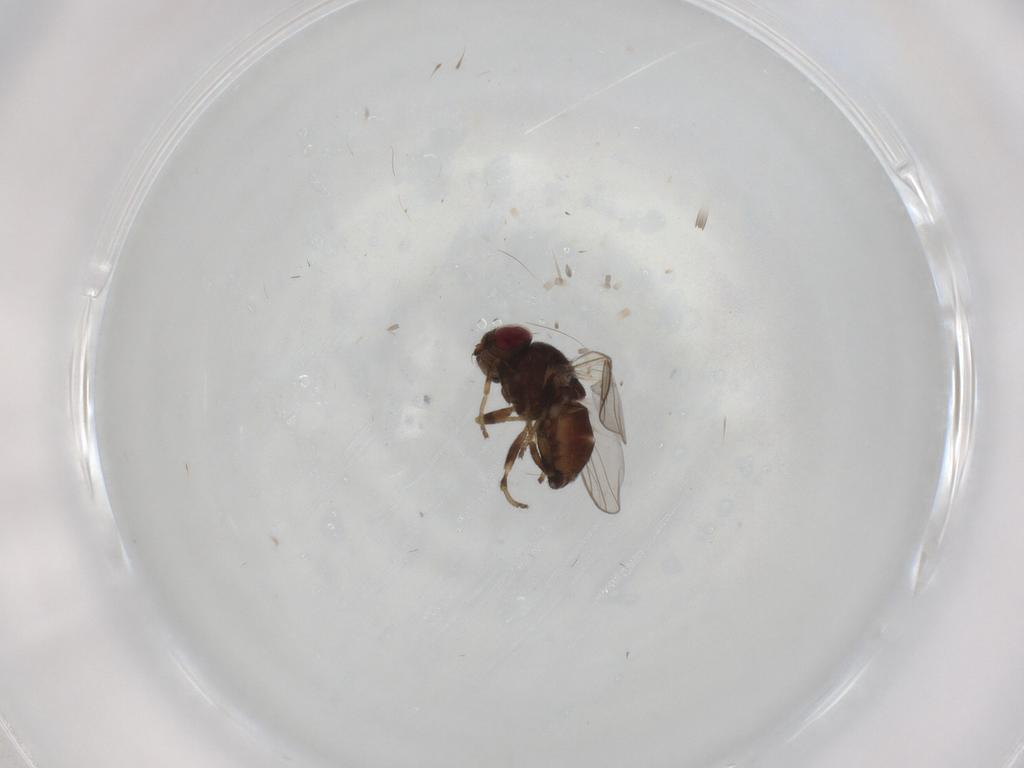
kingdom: Animalia
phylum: Arthropoda
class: Insecta
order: Diptera
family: Chloropidae
